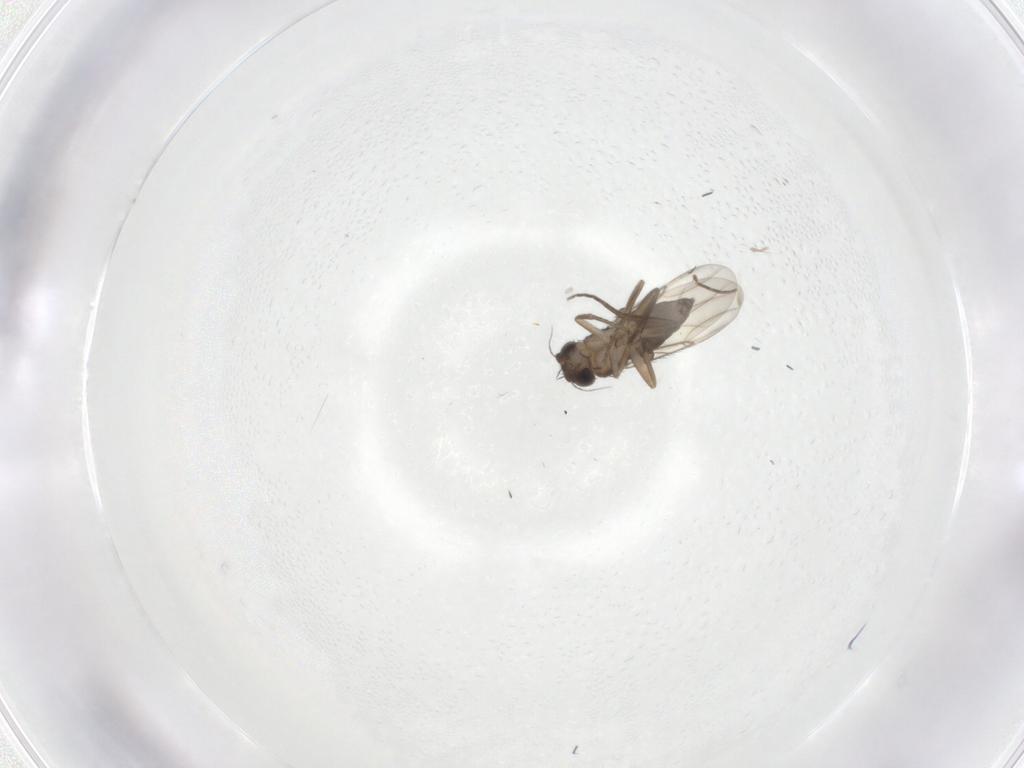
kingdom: Animalia
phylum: Arthropoda
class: Insecta
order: Diptera
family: Phoridae
